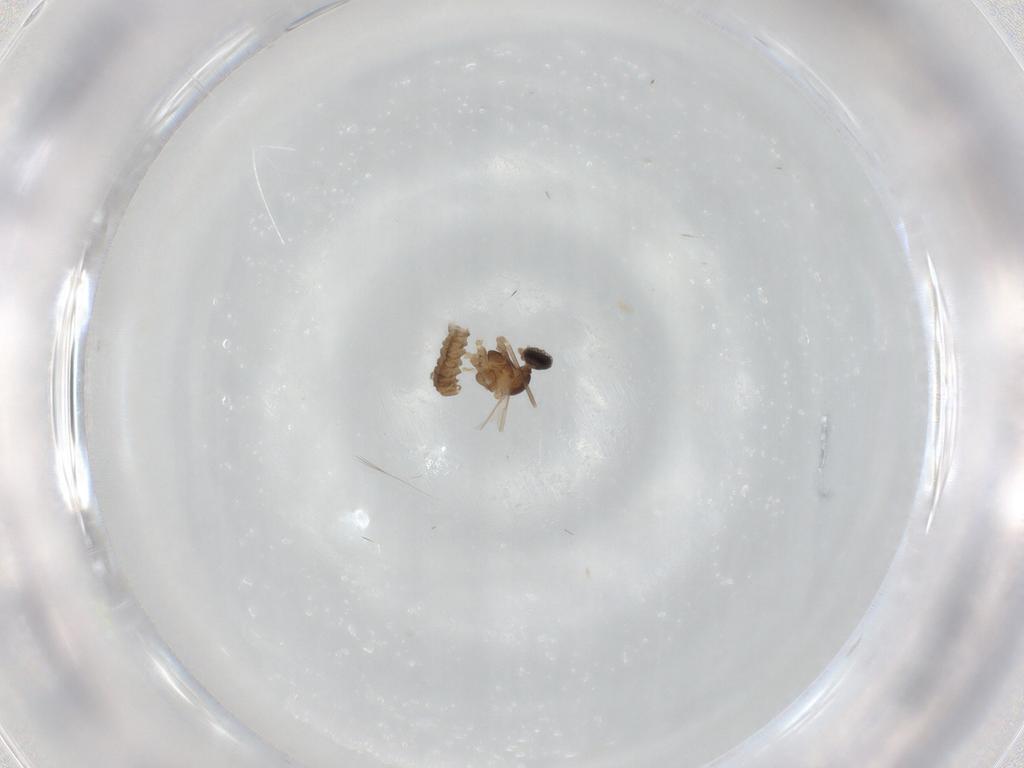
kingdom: Animalia
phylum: Arthropoda
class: Insecta
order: Diptera
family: Cecidomyiidae
